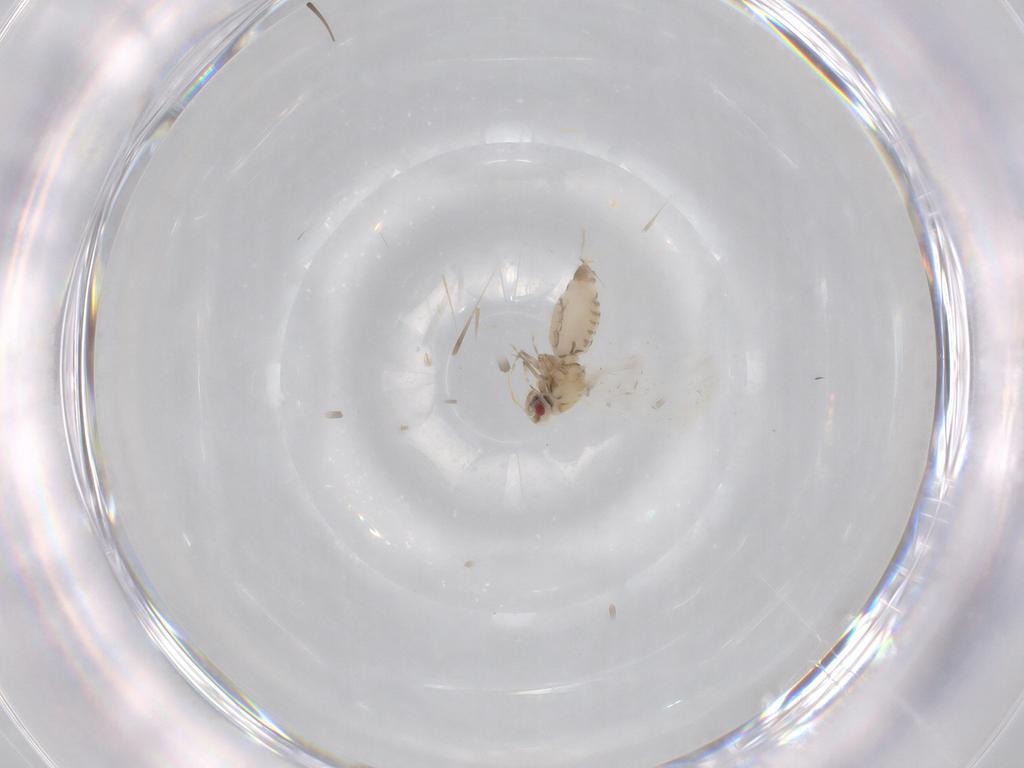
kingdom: Animalia
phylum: Arthropoda
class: Insecta
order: Hemiptera
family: Aleyrodidae
